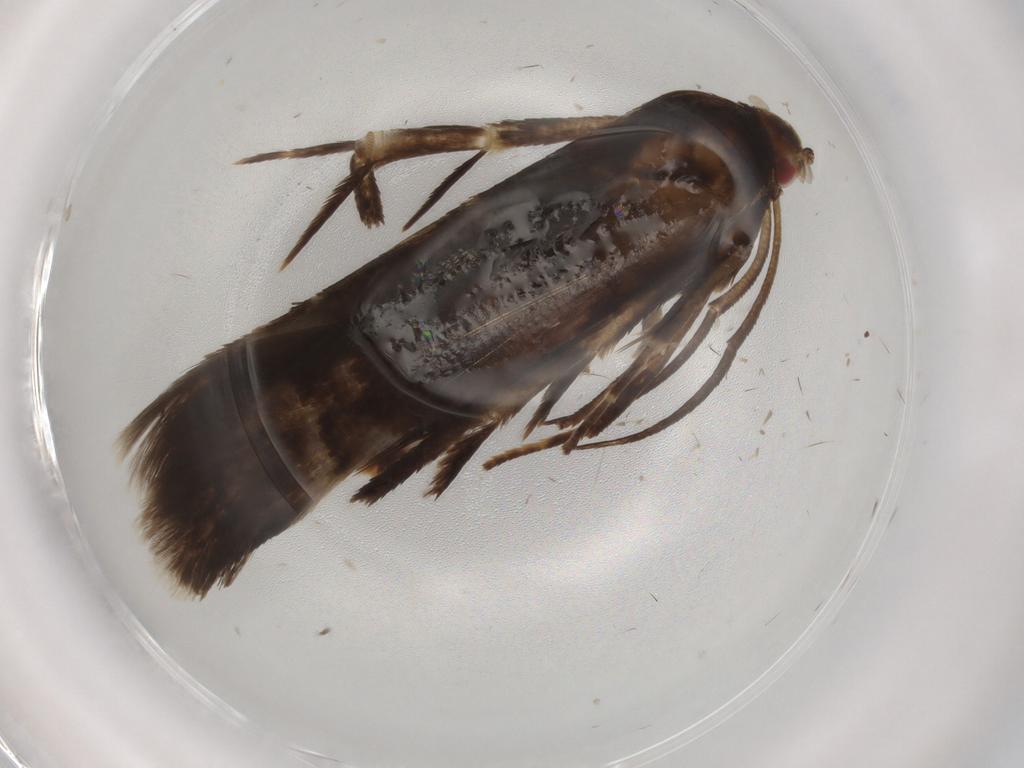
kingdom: Animalia
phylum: Arthropoda
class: Insecta
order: Lepidoptera
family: Cosmopterigidae
